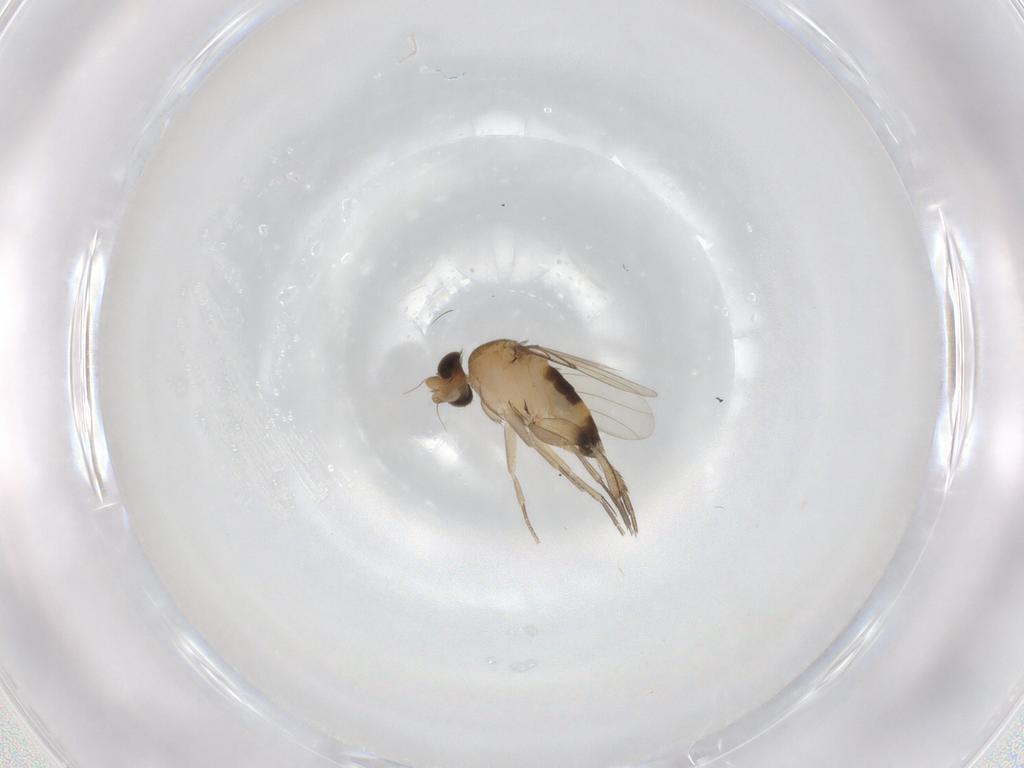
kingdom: Animalia
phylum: Arthropoda
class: Insecta
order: Diptera
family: Phoridae
